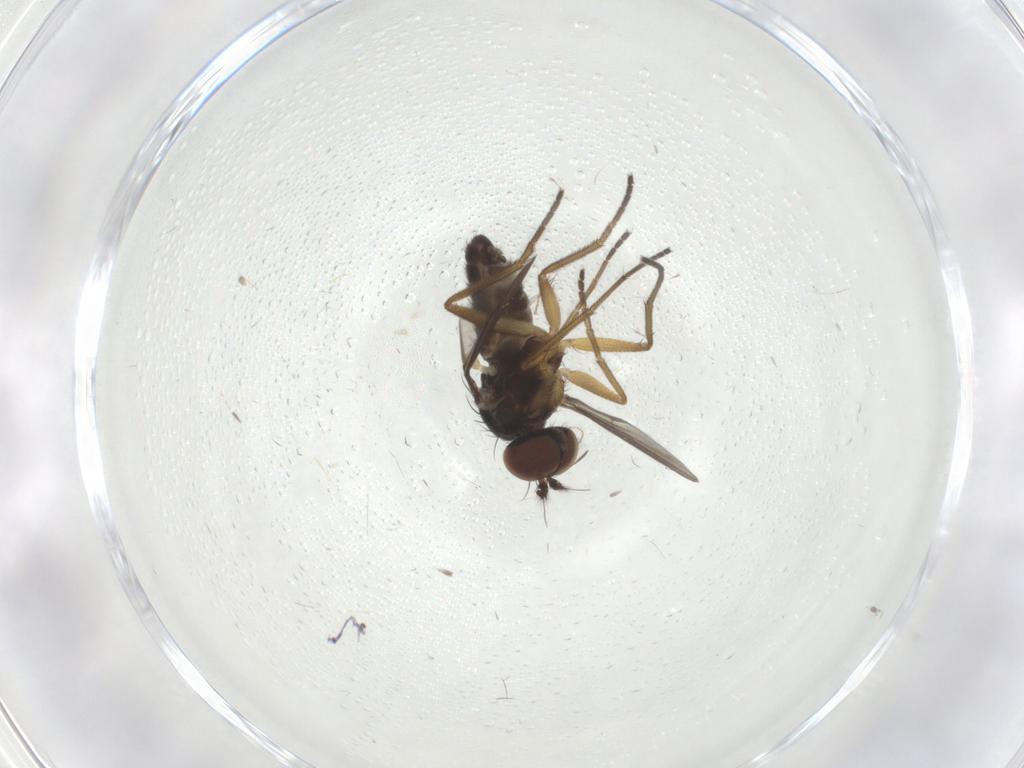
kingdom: Animalia
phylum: Arthropoda
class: Insecta
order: Diptera
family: Dolichopodidae
